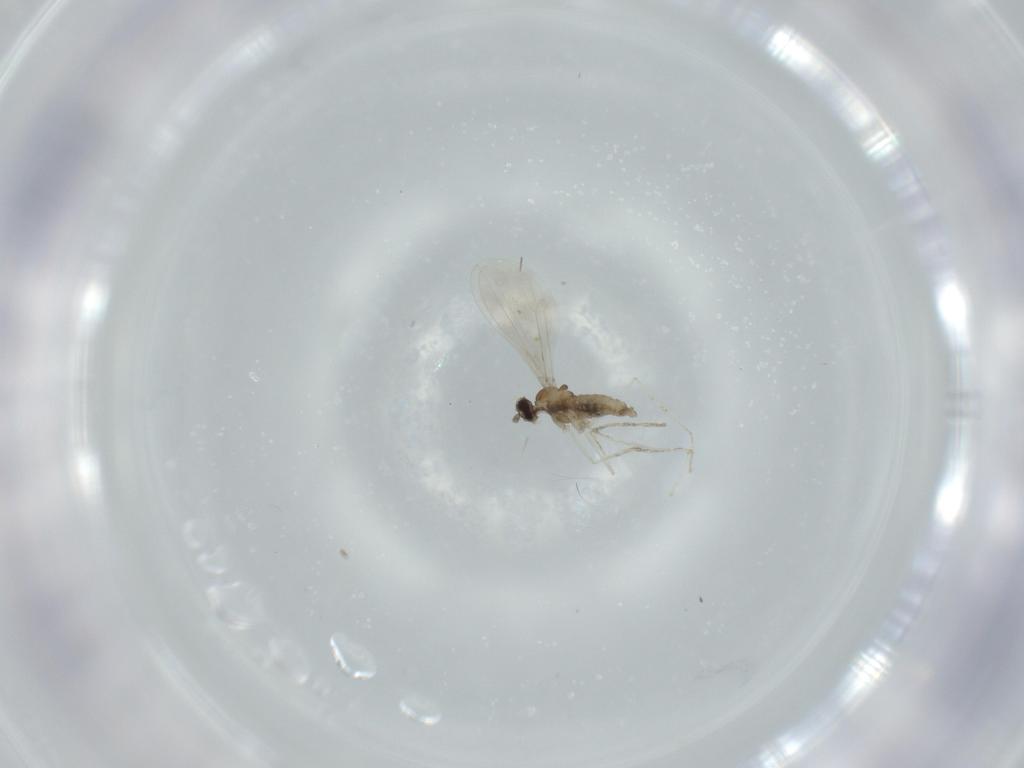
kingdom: Animalia
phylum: Arthropoda
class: Insecta
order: Diptera
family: Cecidomyiidae
